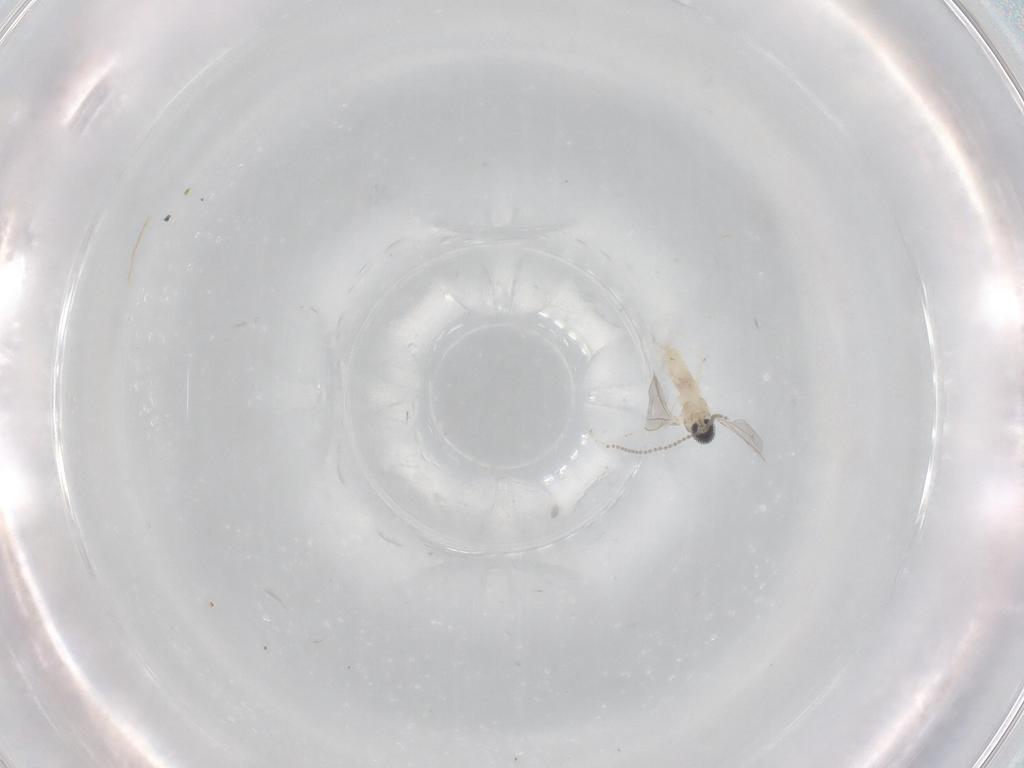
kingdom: Animalia
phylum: Arthropoda
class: Insecta
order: Diptera
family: Cecidomyiidae
